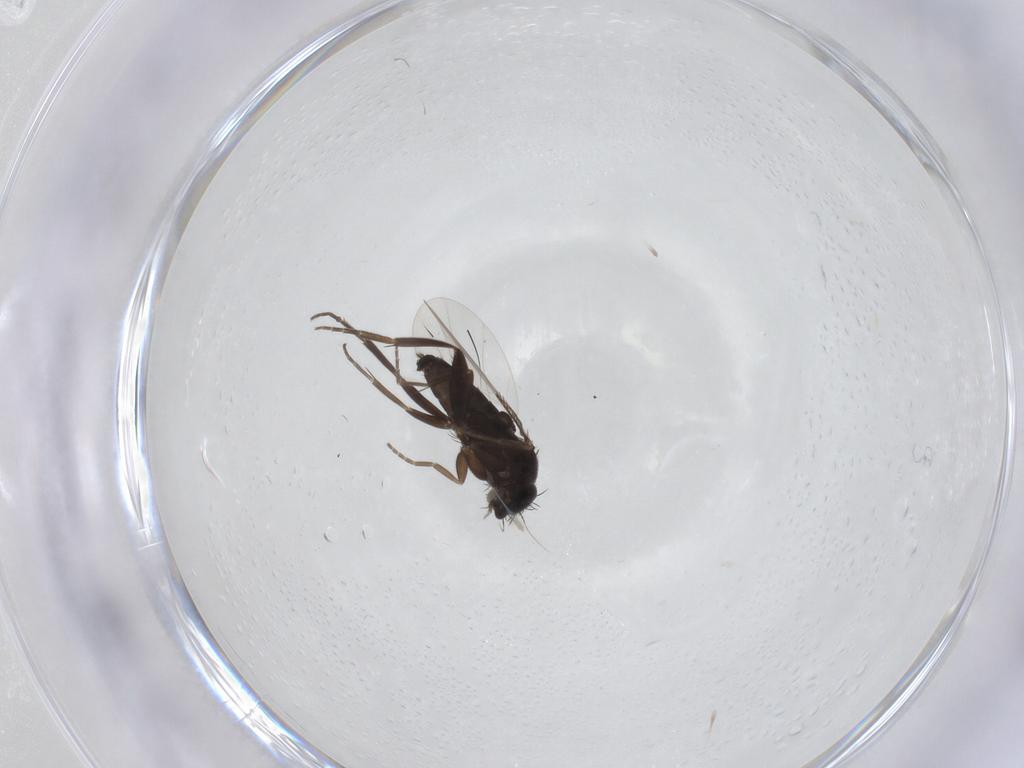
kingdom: Animalia
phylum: Arthropoda
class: Insecta
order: Diptera
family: Phoridae
